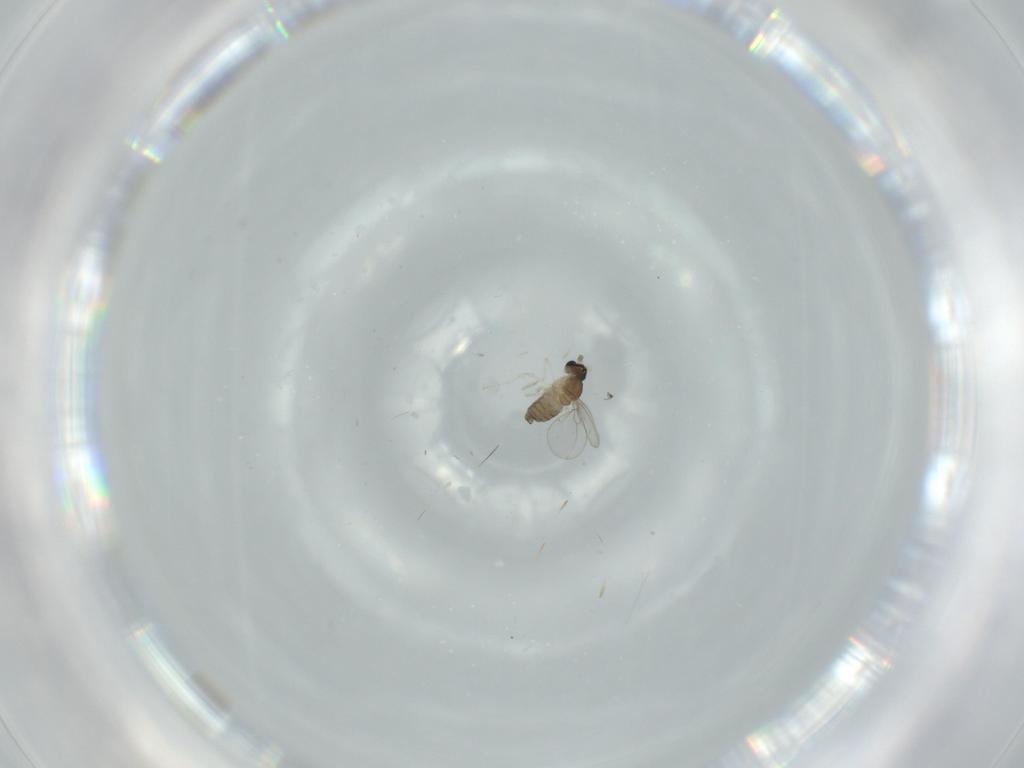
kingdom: Animalia
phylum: Arthropoda
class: Insecta
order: Diptera
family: Cecidomyiidae
